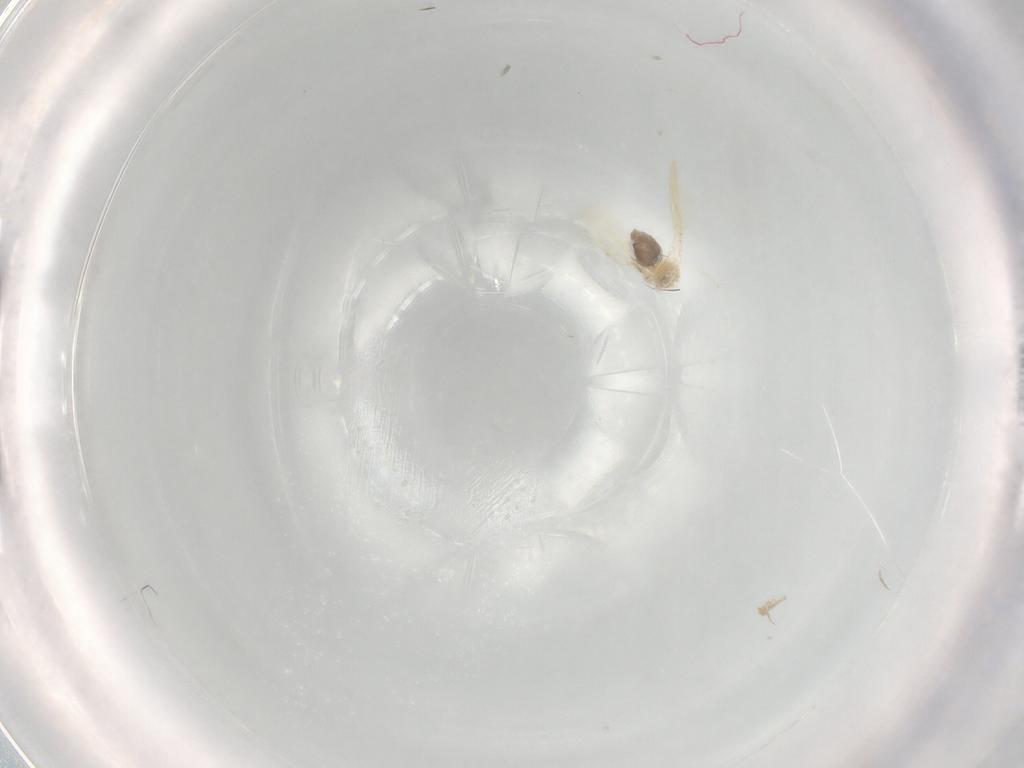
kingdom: Animalia
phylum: Arthropoda
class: Insecta
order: Hemiptera
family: Aleyrodidae
